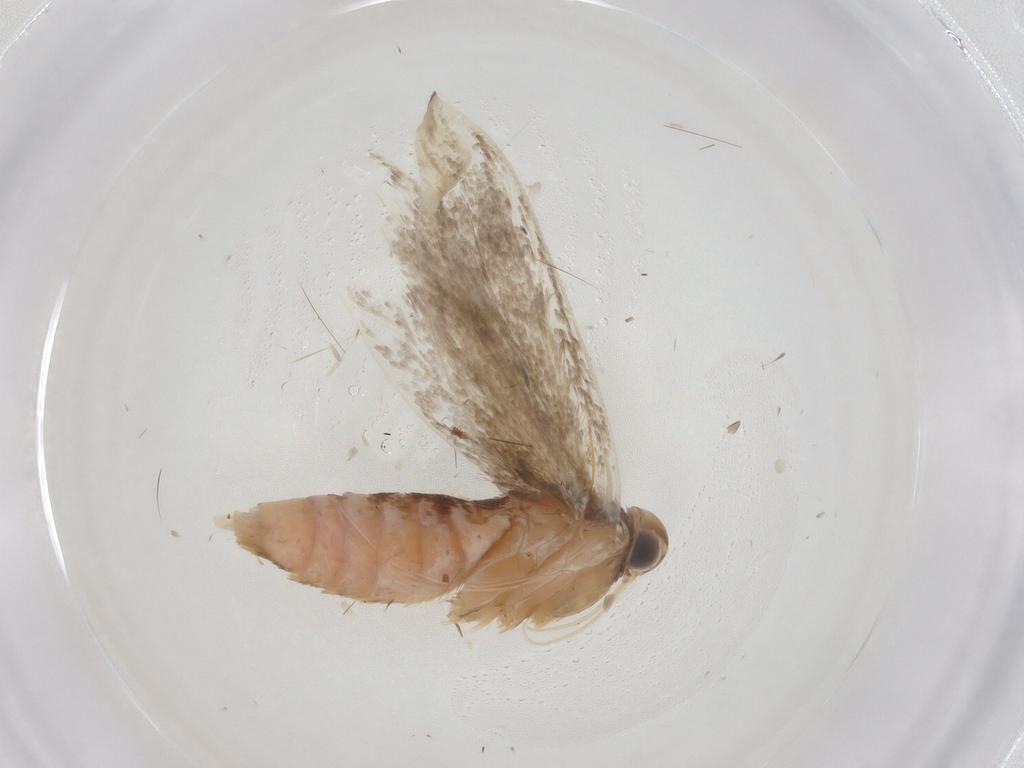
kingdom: Animalia
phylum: Arthropoda
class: Insecta
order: Lepidoptera
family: Gelechiidae
